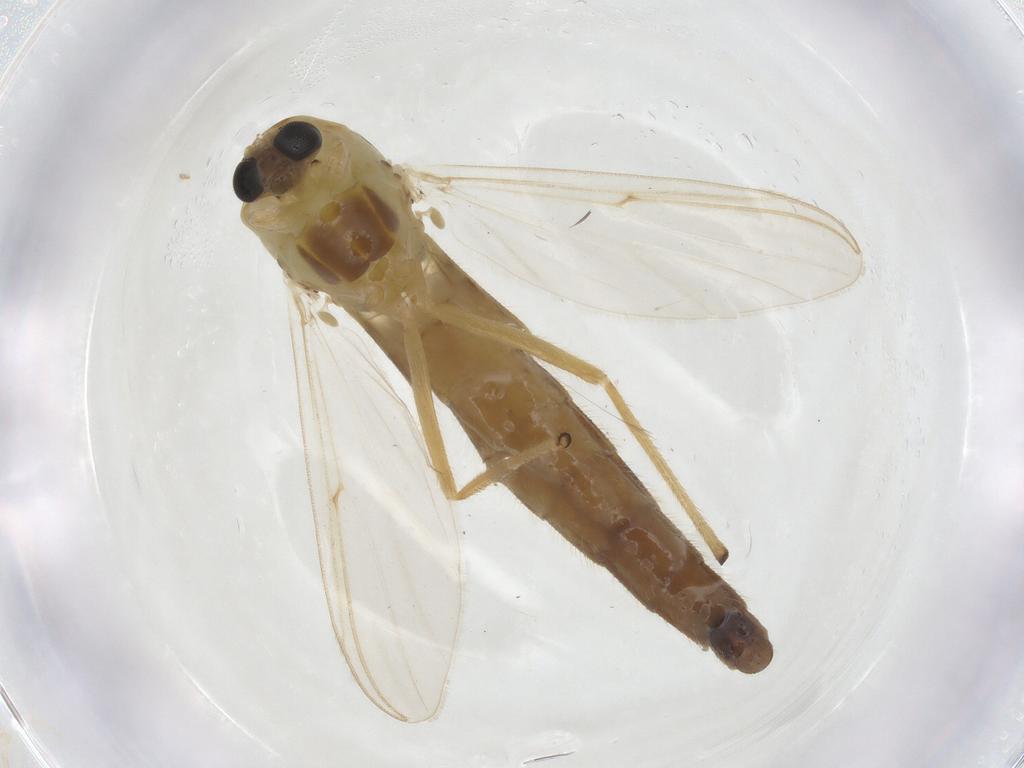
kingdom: Animalia
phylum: Arthropoda
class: Insecta
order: Diptera
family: Chironomidae
